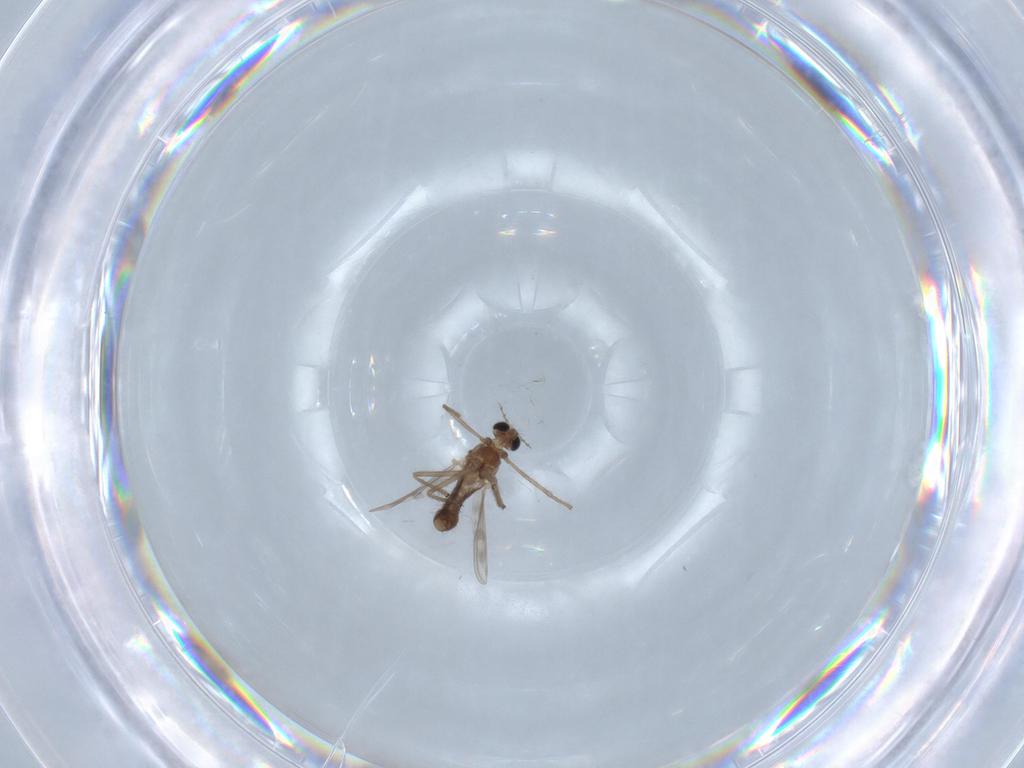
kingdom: Animalia
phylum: Arthropoda
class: Insecta
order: Diptera
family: Chironomidae
